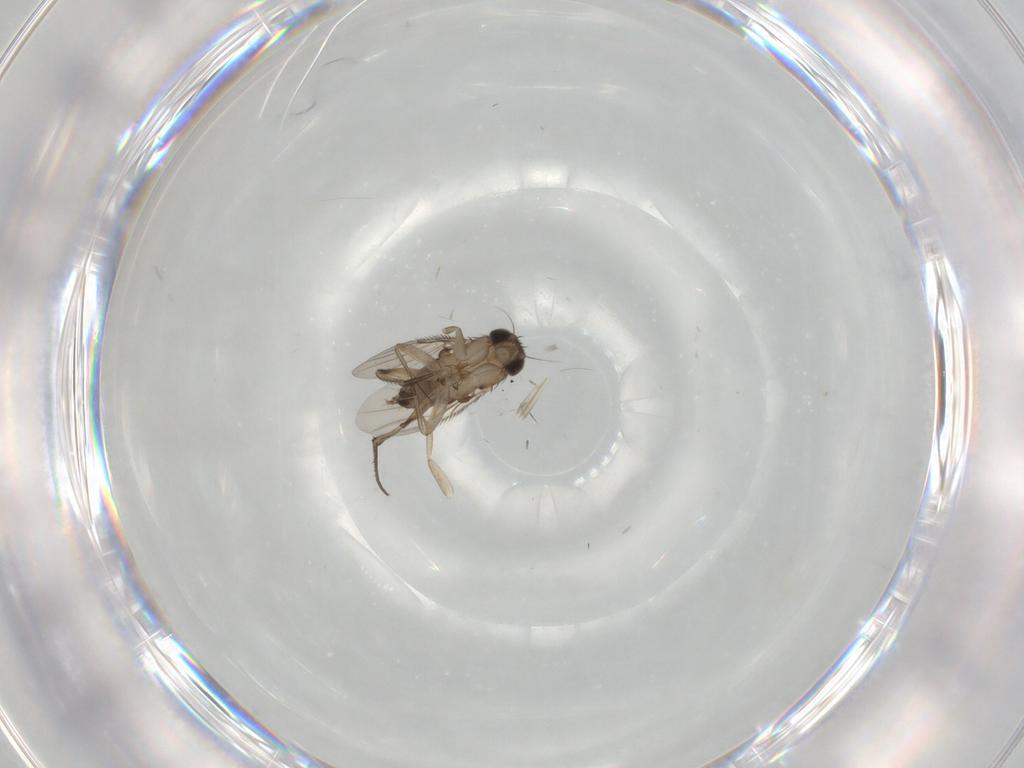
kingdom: Animalia
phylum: Arthropoda
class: Insecta
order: Diptera
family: Phoridae
